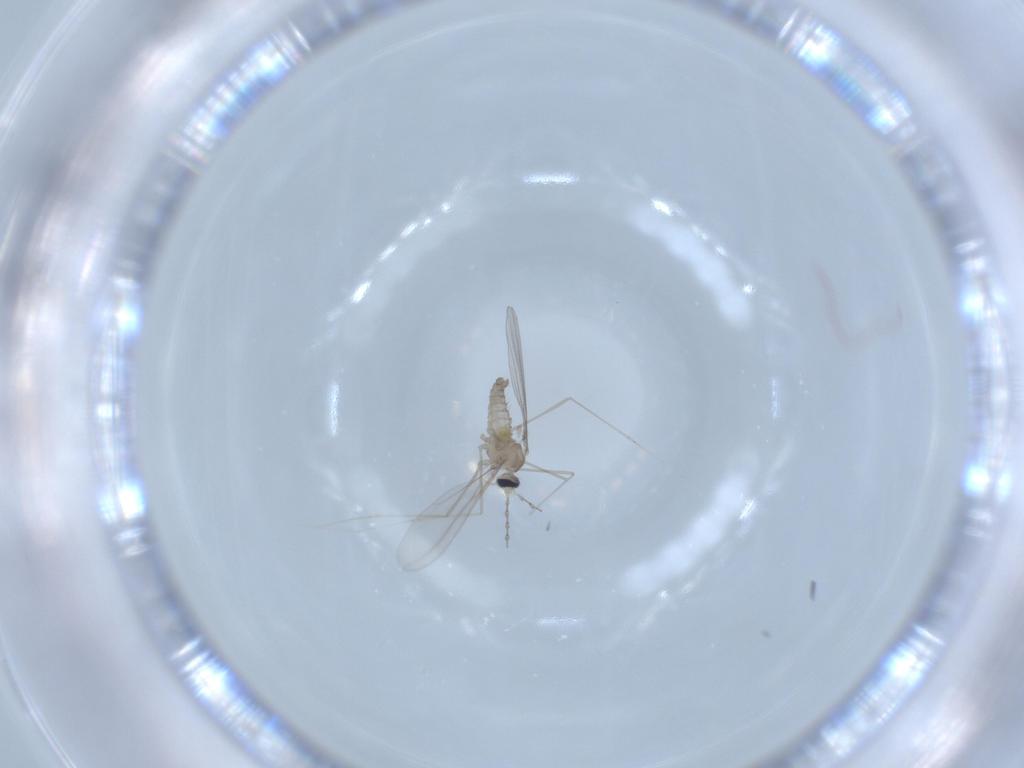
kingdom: Animalia
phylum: Arthropoda
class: Insecta
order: Diptera
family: Cecidomyiidae
